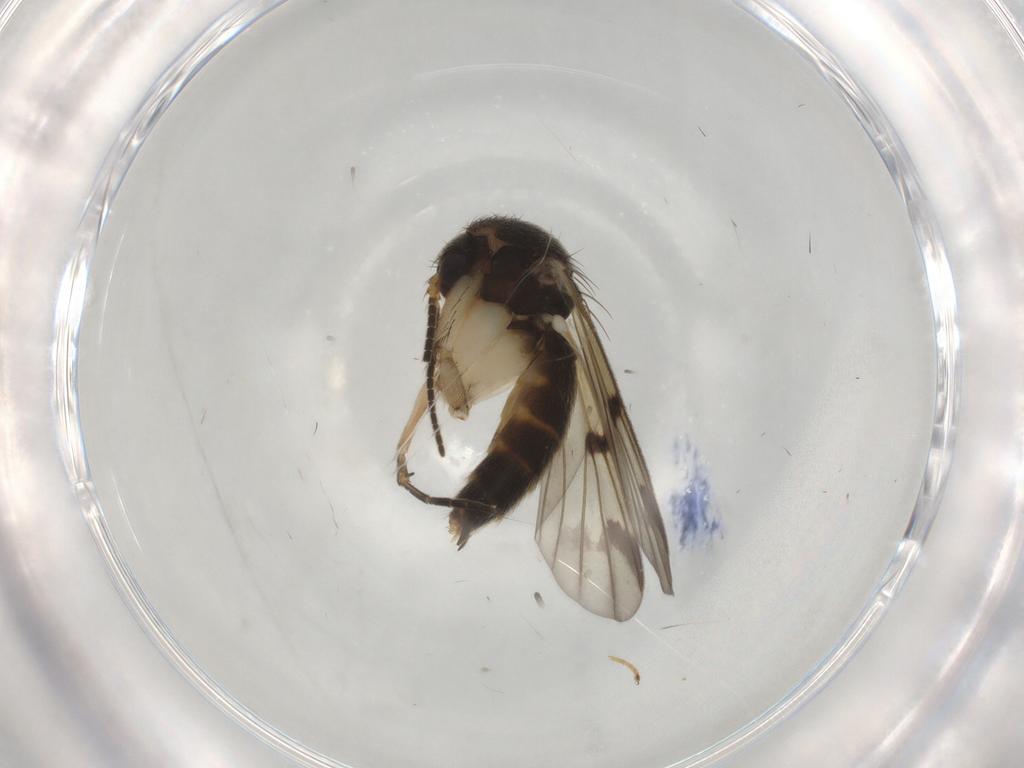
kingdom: Animalia
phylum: Arthropoda
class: Insecta
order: Diptera
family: Mycetophilidae
